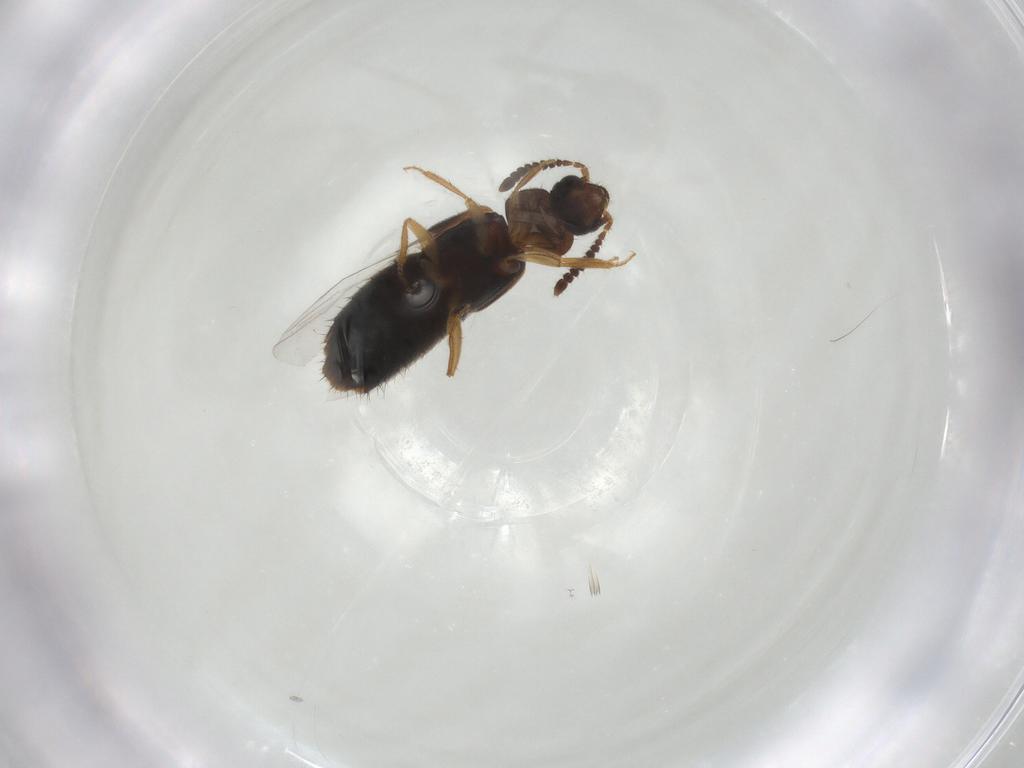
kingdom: Animalia
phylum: Arthropoda
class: Insecta
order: Coleoptera
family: Staphylinidae
